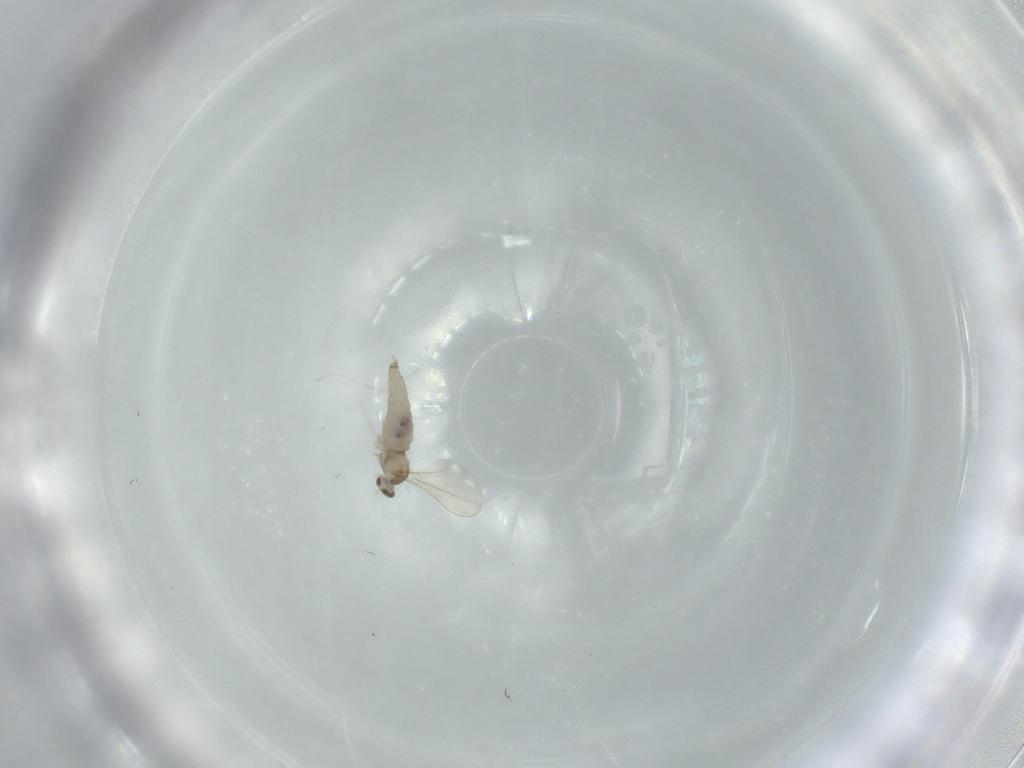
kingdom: Animalia
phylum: Arthropoda
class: Insecta
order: Diptera
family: Cecidomyiidae
